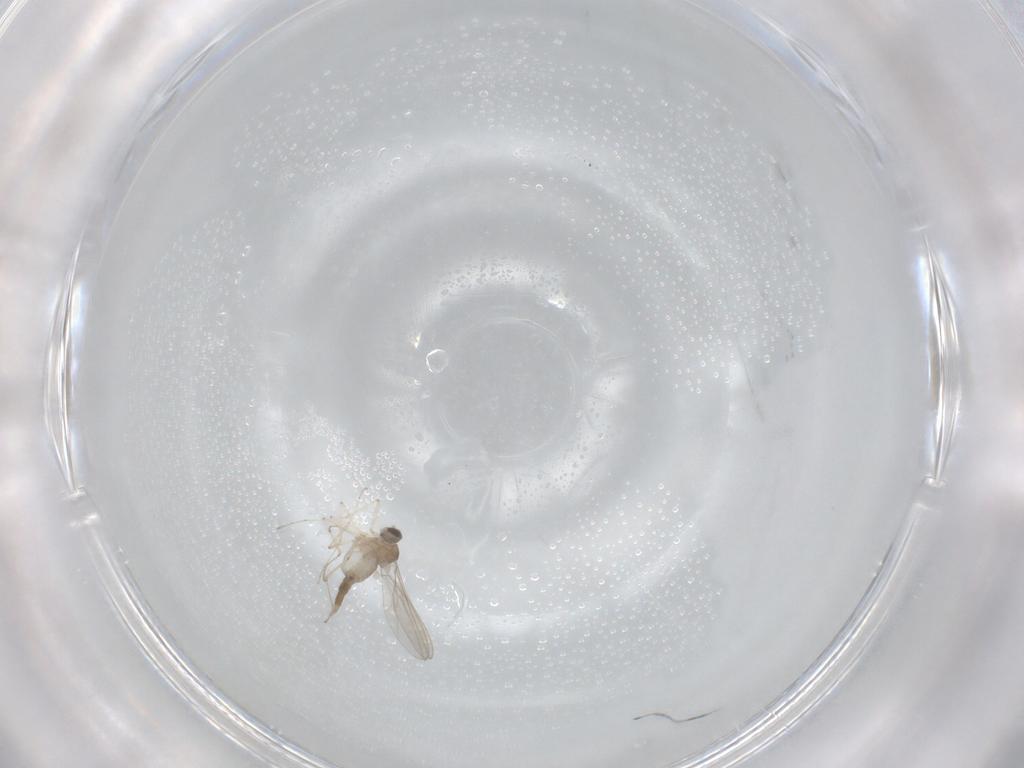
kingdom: Animalia
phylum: Arthropoda
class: Insecta
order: Diptera
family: Cecidomyiidae
